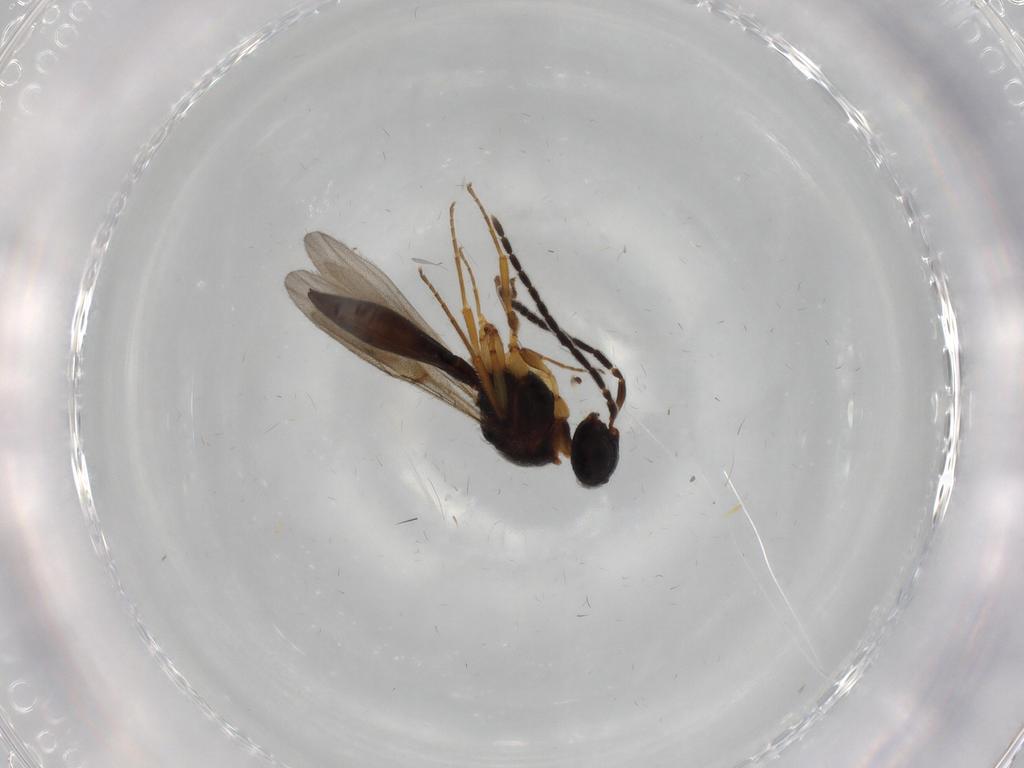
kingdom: Animalia
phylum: Arthropoda
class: Insecta
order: Hymenoptera
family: Scelionidae
